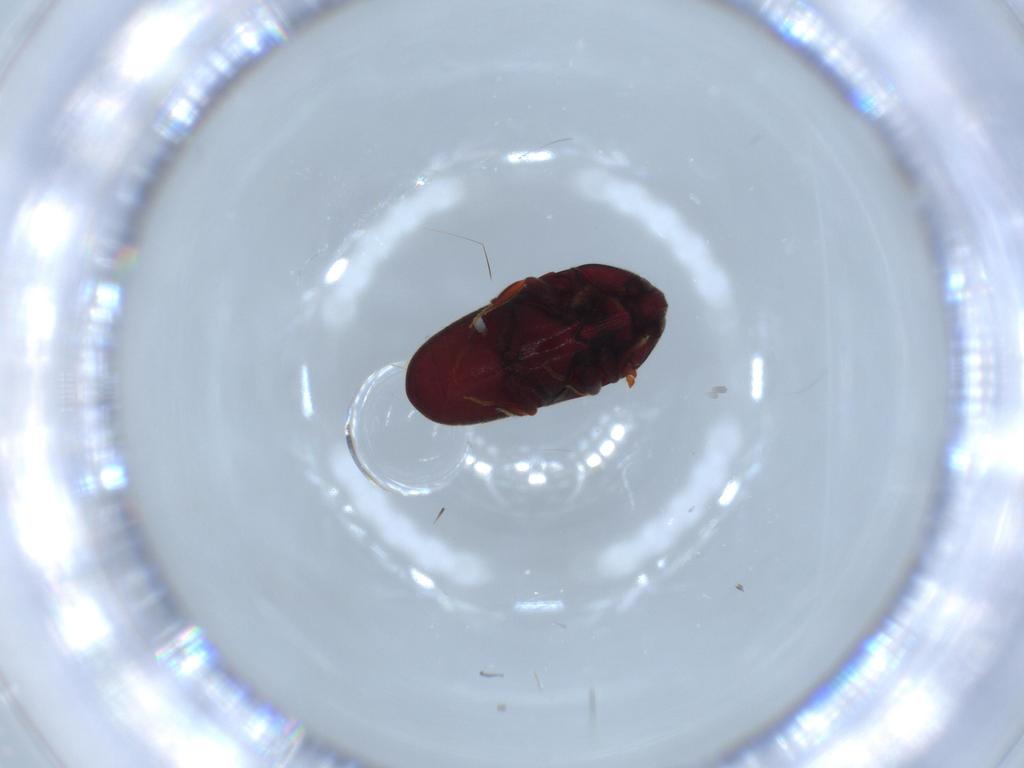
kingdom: Animalia
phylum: Arthropoda
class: Insecta
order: Coleoptera
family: Throscidae
